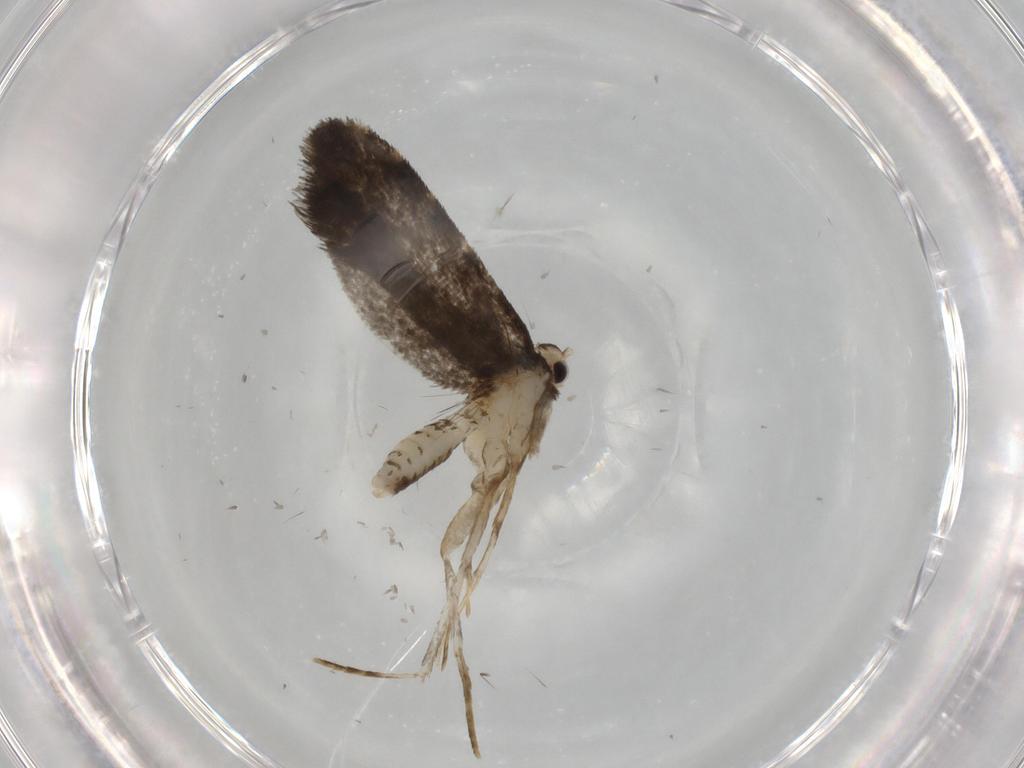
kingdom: Animalia
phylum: Arthropoda
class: Insecta
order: Lepidoptera
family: Psychidae
